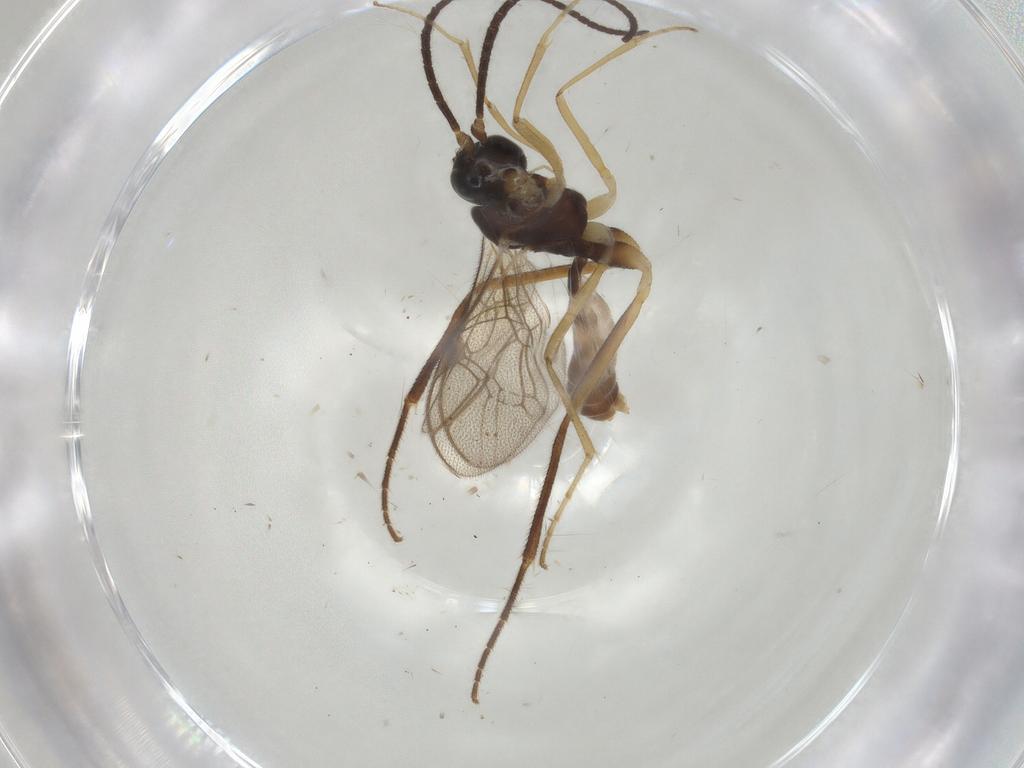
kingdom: Animalia
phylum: Arthropoda
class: Insecta
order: Hymenoptera
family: Ichneumonidae
